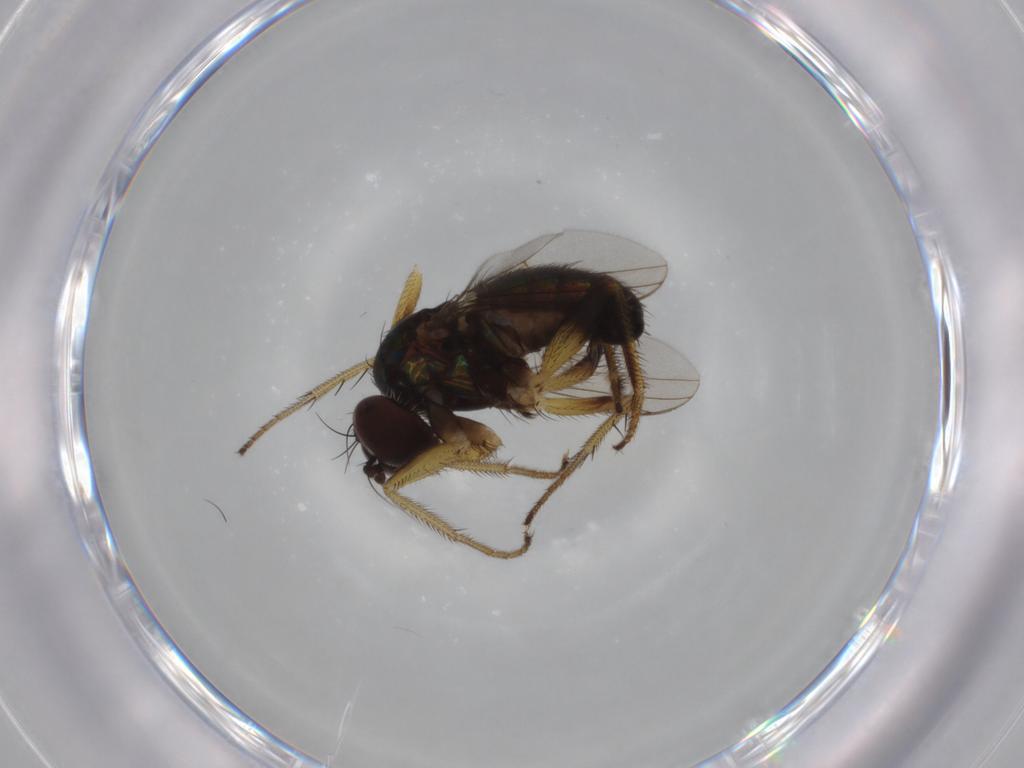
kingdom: Animalia
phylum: Arthropoda
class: Insecta
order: Diptera
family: Dolichopodidae
